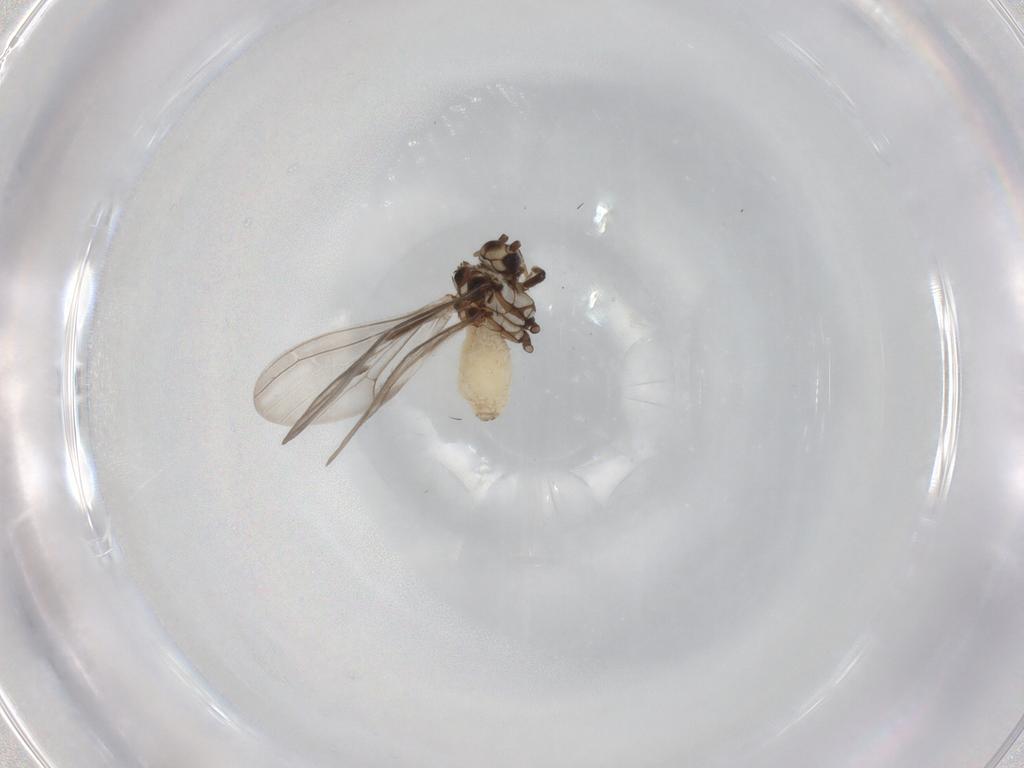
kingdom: Animalia
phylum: Arthropoda
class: Insecta
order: Neuroptera
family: Coniopterygidae
